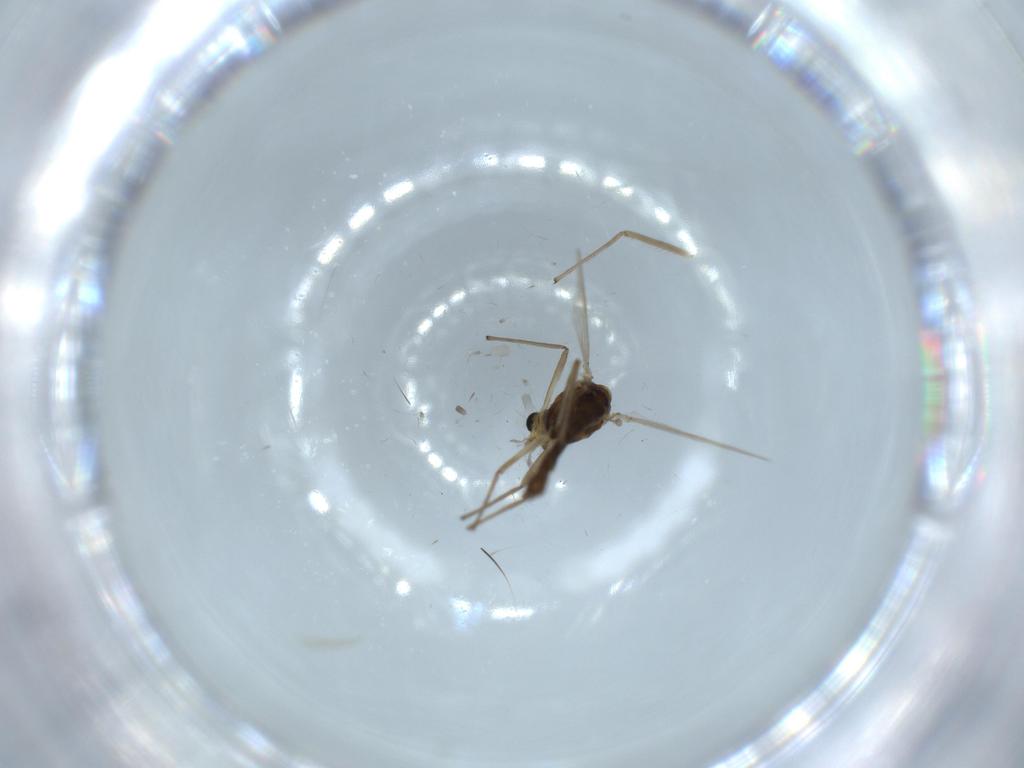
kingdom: Animalia
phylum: Arthropoda
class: Insecta
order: Diptera
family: Chironomidae
